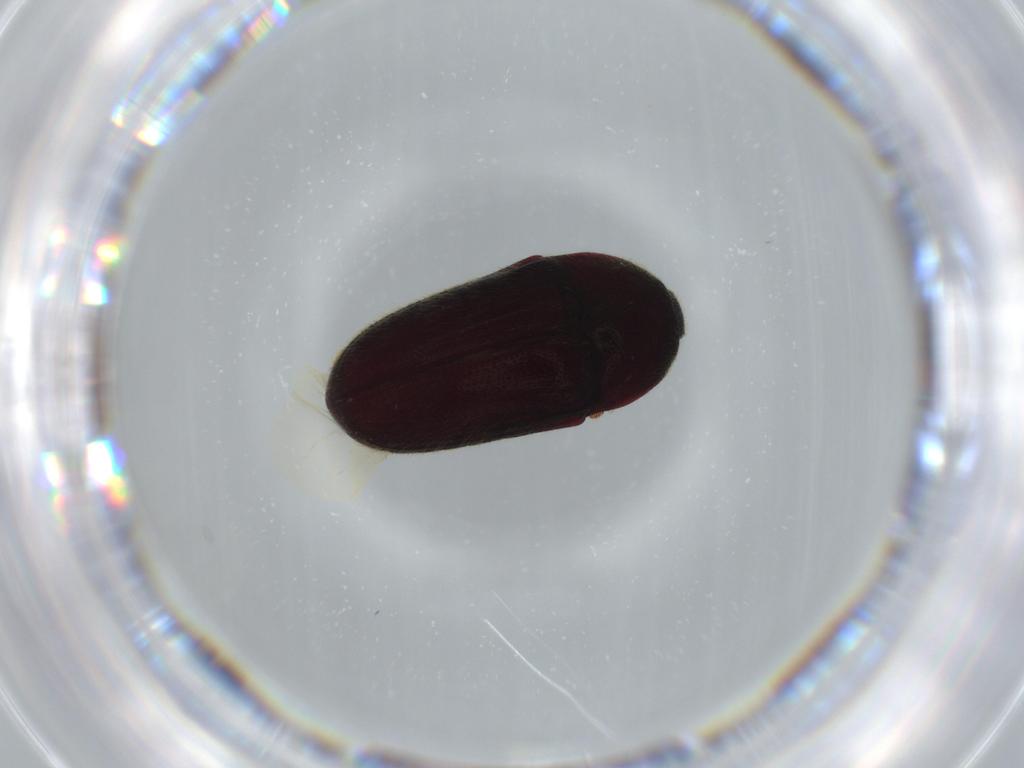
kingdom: Animalia
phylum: Arthropoda
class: Insecta
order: Coleoptera
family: Throscidae
